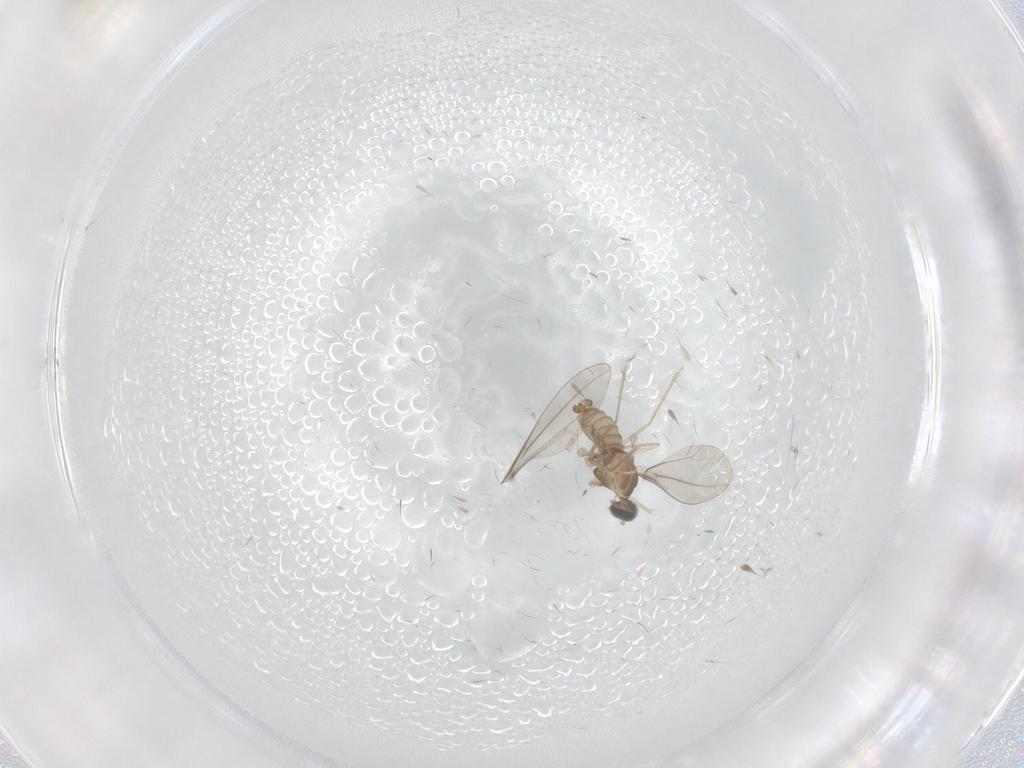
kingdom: Animalia
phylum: Arthropoda
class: Insecta
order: Diptera
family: Cecidomyiidae
